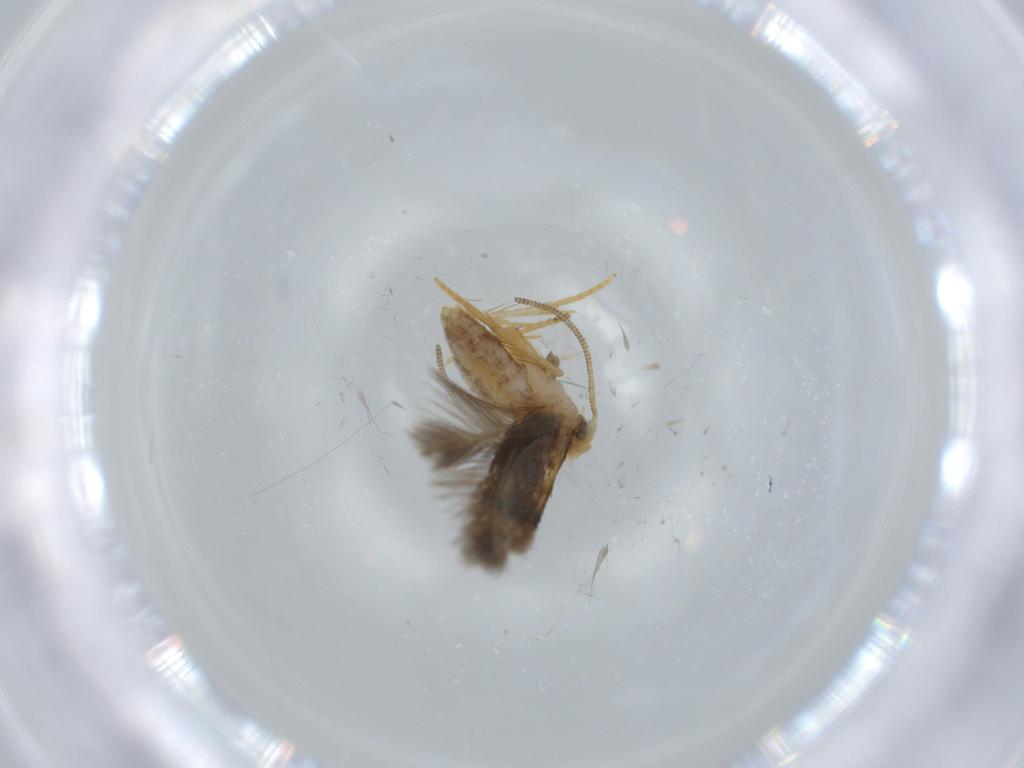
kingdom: Animalia
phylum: Arthropoda
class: Insecta
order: Lepidoptera
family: Nepticulidae
